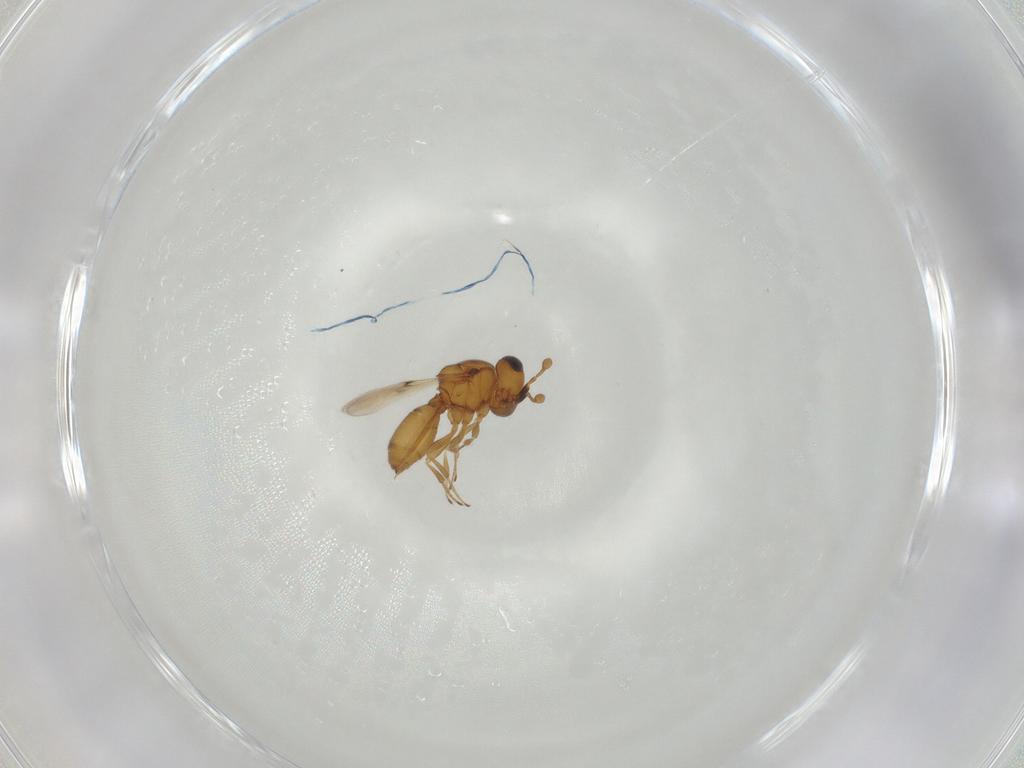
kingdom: Animalia
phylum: Arthropoda
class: Insecta
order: Hymenoptera
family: Scelionidae
